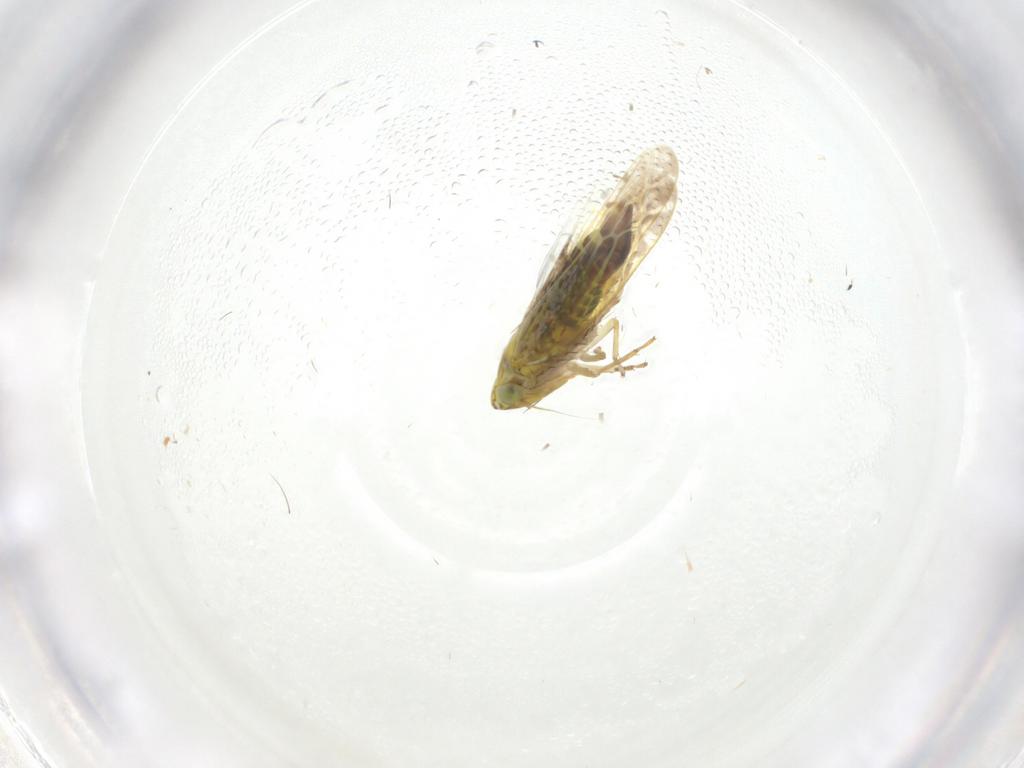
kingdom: Animalia
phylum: Arthropoda
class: Insecta
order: Hemiptera
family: Cicadellidae
